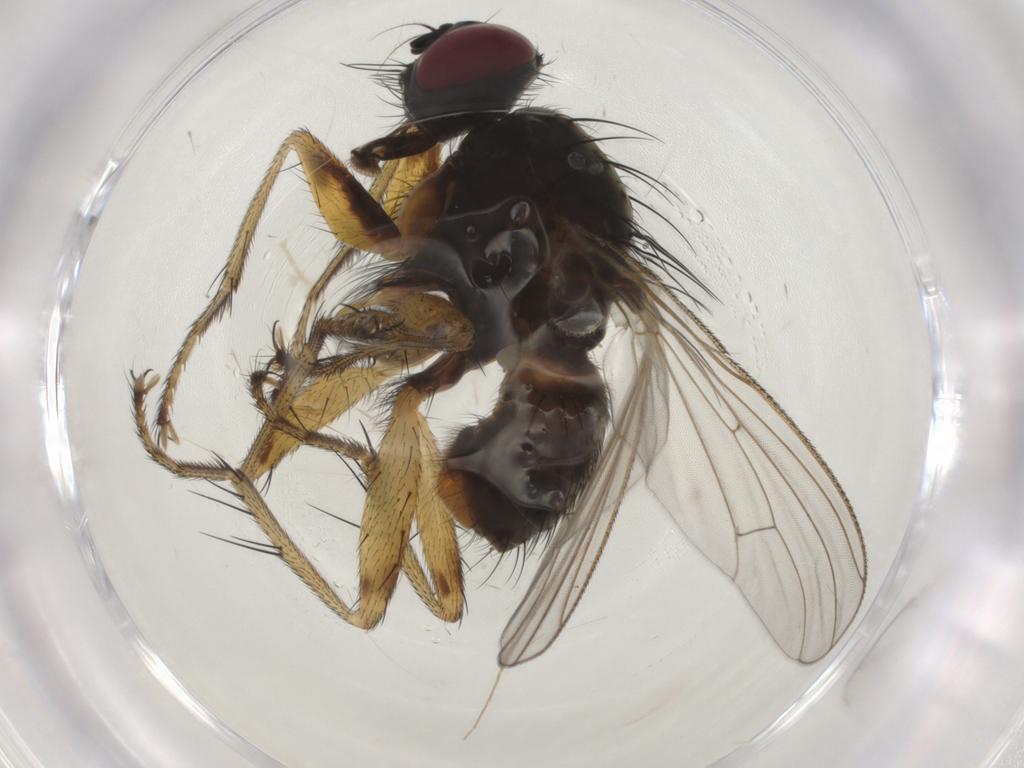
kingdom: Animalia
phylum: Arthropoda
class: Insecta
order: Diptera
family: Muscidae
